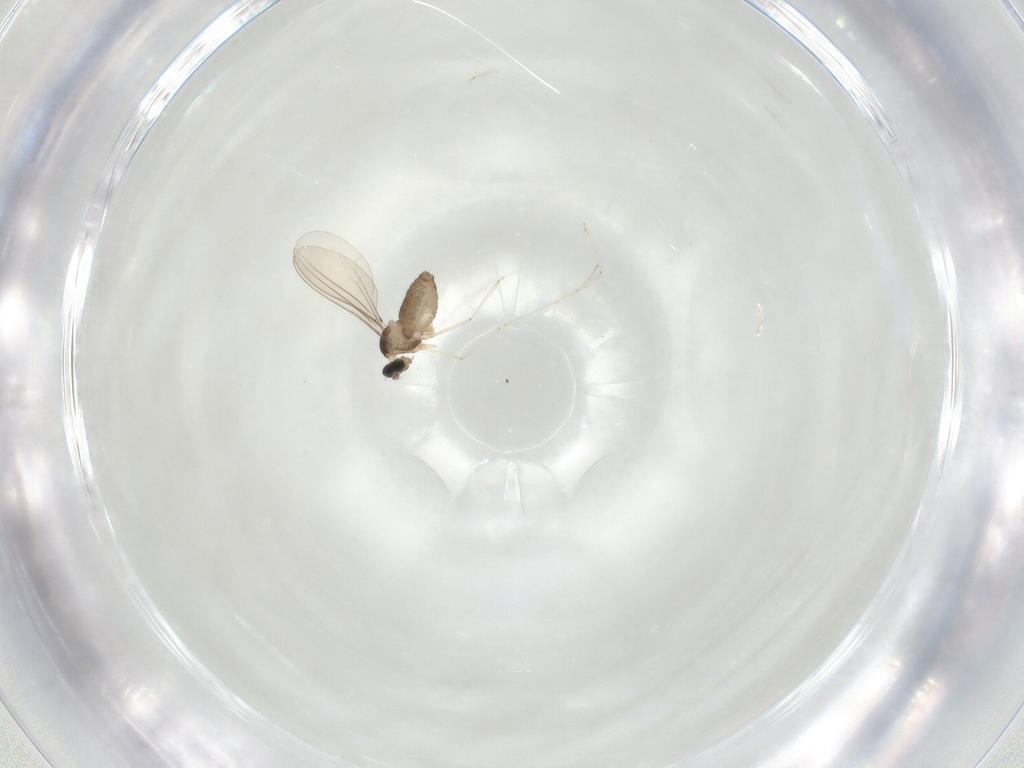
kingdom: Animalia
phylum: Arthropoda
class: Insecta
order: Diptera
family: Cecidomyiidae
